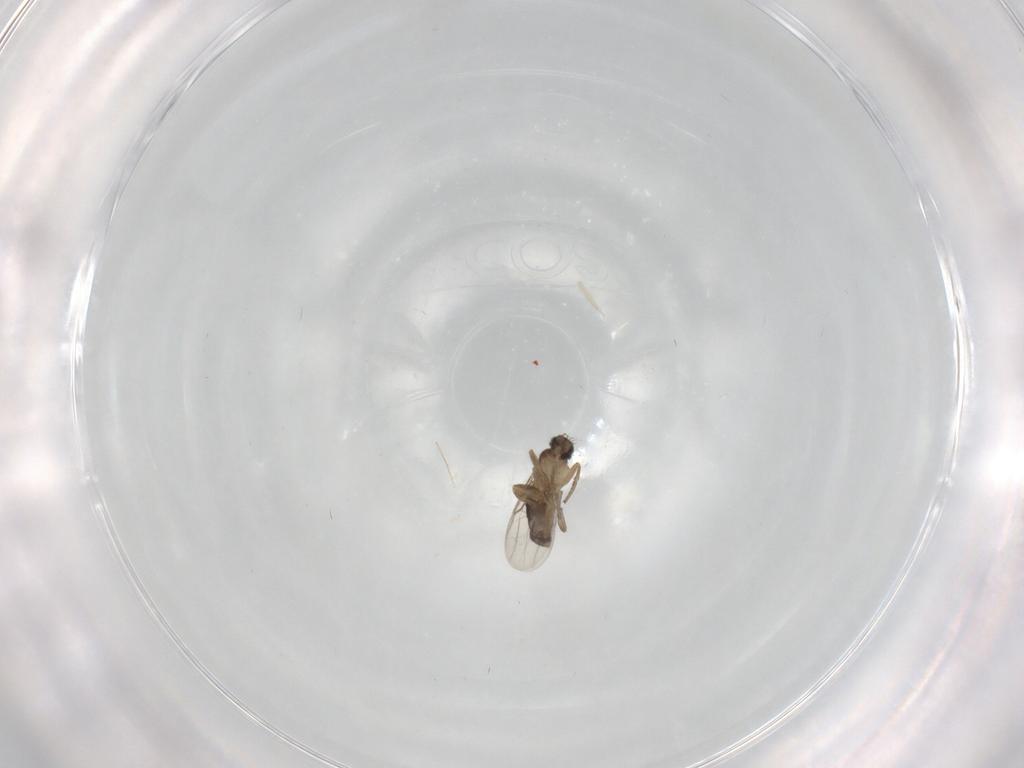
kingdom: Animalia
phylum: Arthropoda
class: Insecta
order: Diptera
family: Phoridae
